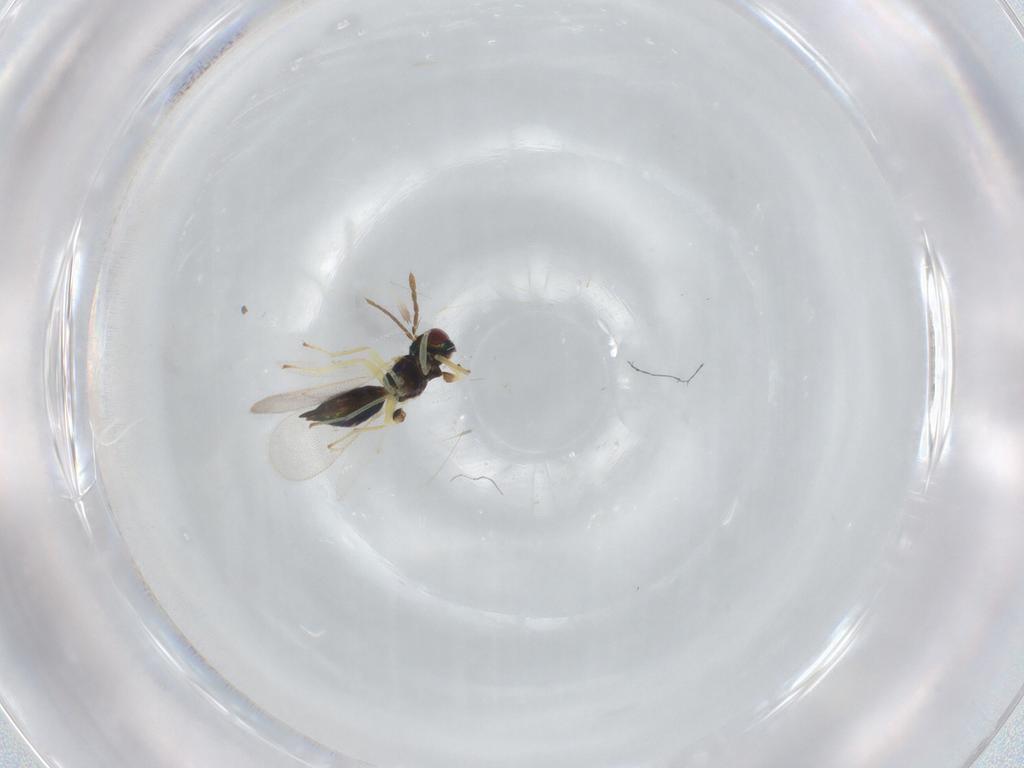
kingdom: Animalia
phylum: Arthropoda
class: Insecta
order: Hymenoptera
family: Eulophidae
